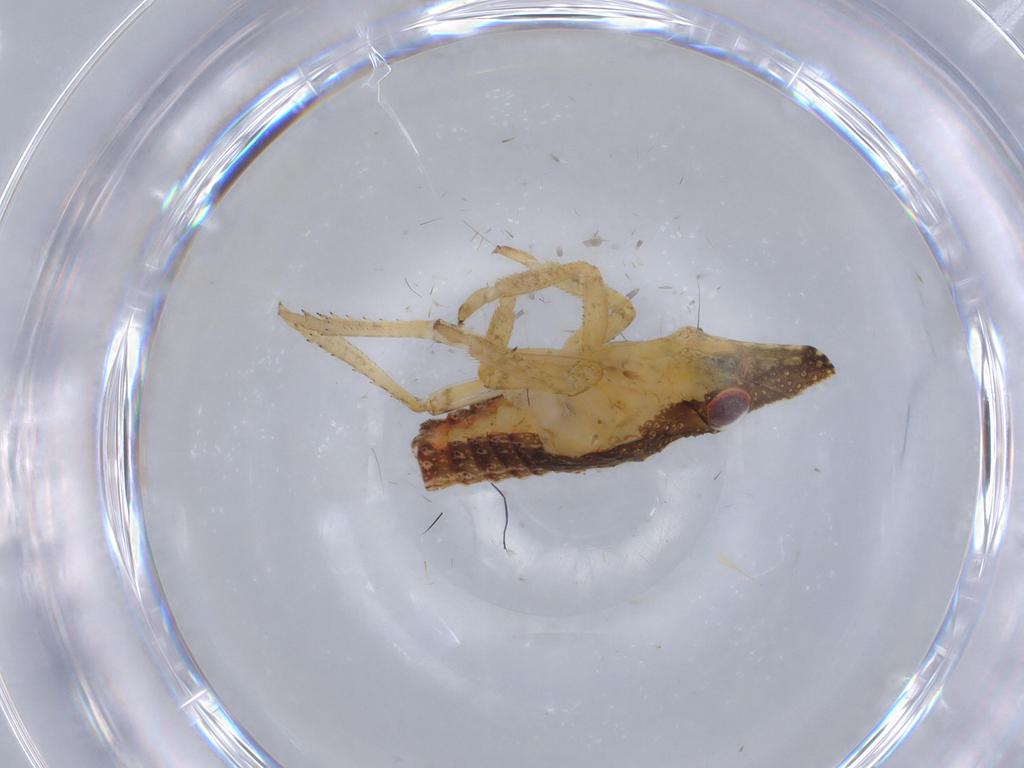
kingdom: Animalia
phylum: Arthropoda
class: Insecta
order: Hemiptera
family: Fulgoroidea_incertae_sedis
